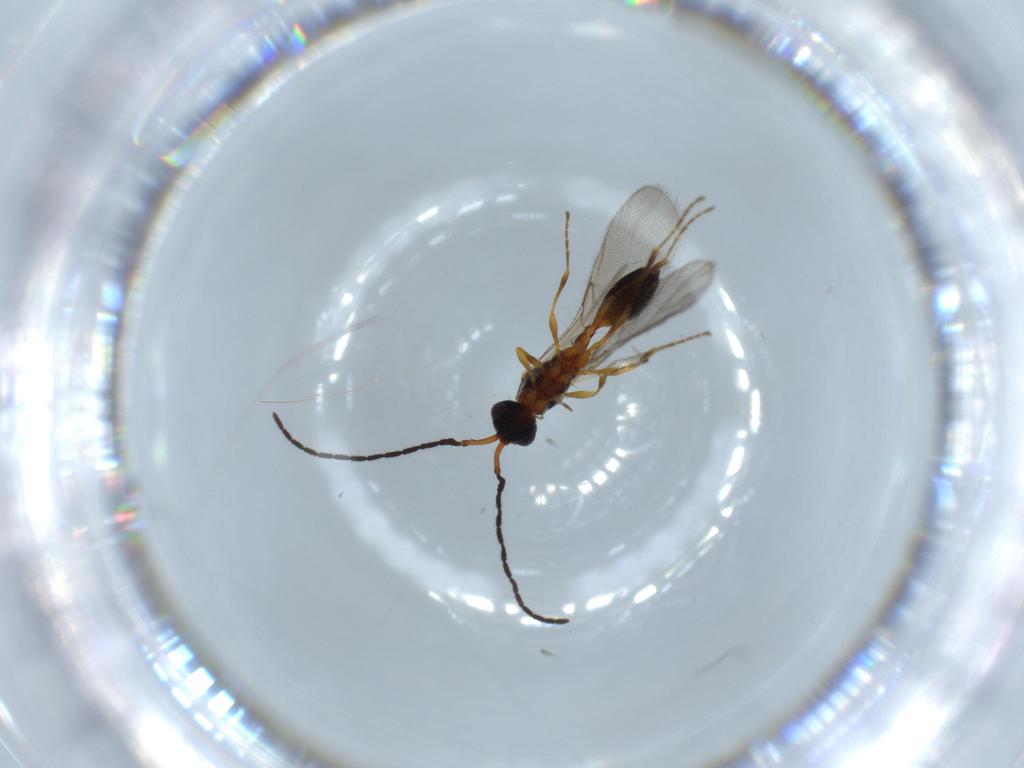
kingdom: Animalia
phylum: Arthropoda
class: Insecta
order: Hymenoptera
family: Diapriidae
